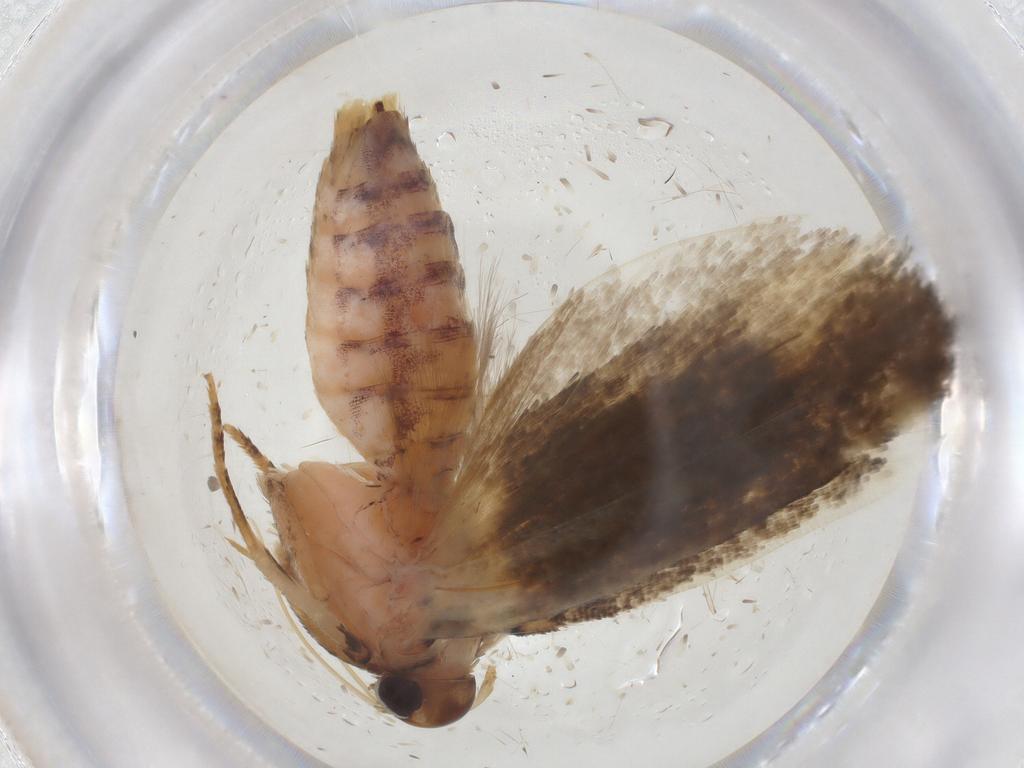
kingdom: Animalia
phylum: Arthropoda
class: Insecta
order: Lepidoptera
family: Gelechiidae
